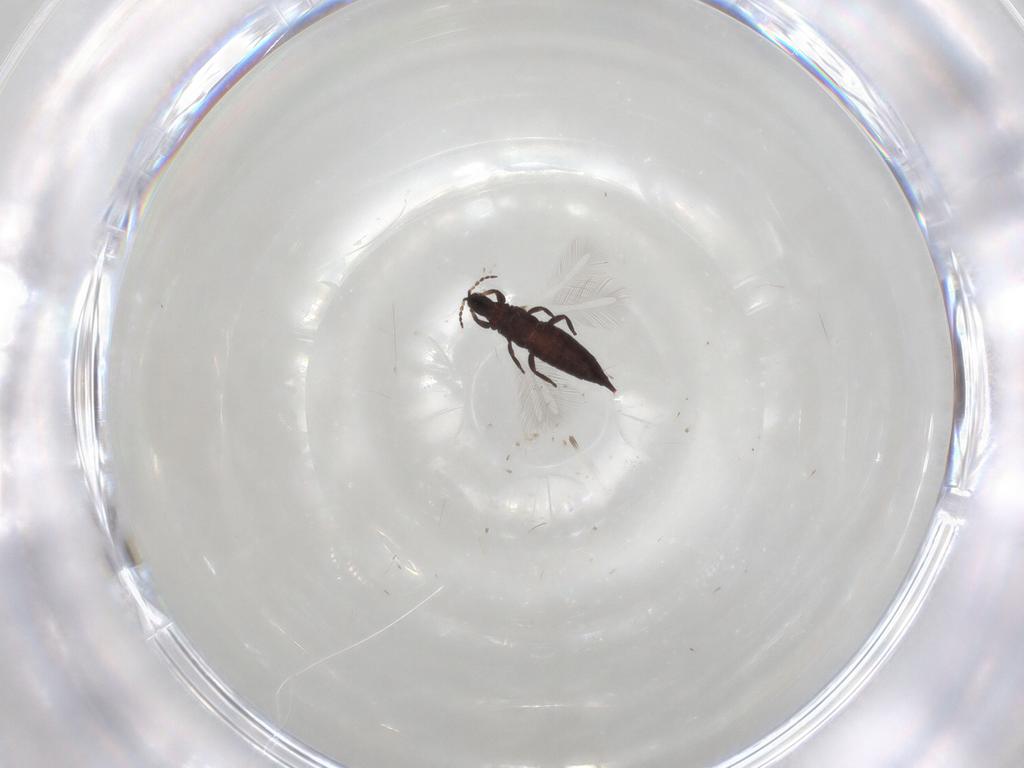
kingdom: Animalia
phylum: Arthropoda
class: Insecta
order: Thysanoptera
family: Phlaeothripidae
